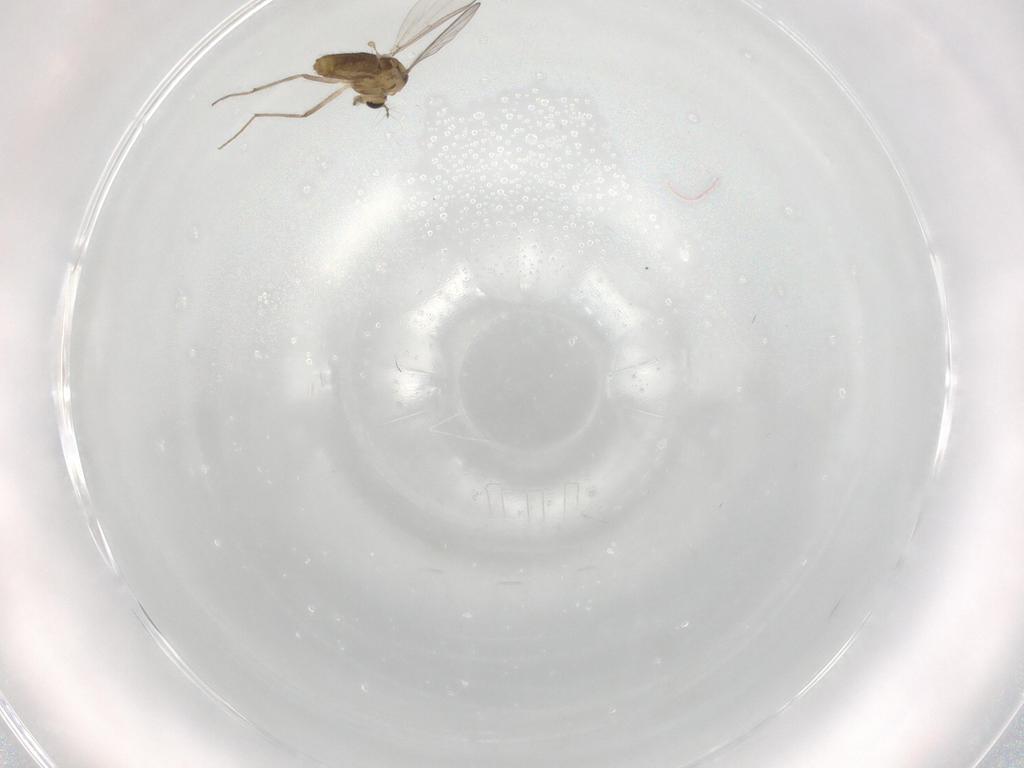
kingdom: Animalia
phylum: Arthropoda
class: Insecta
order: Diptera
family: Chironomidae
